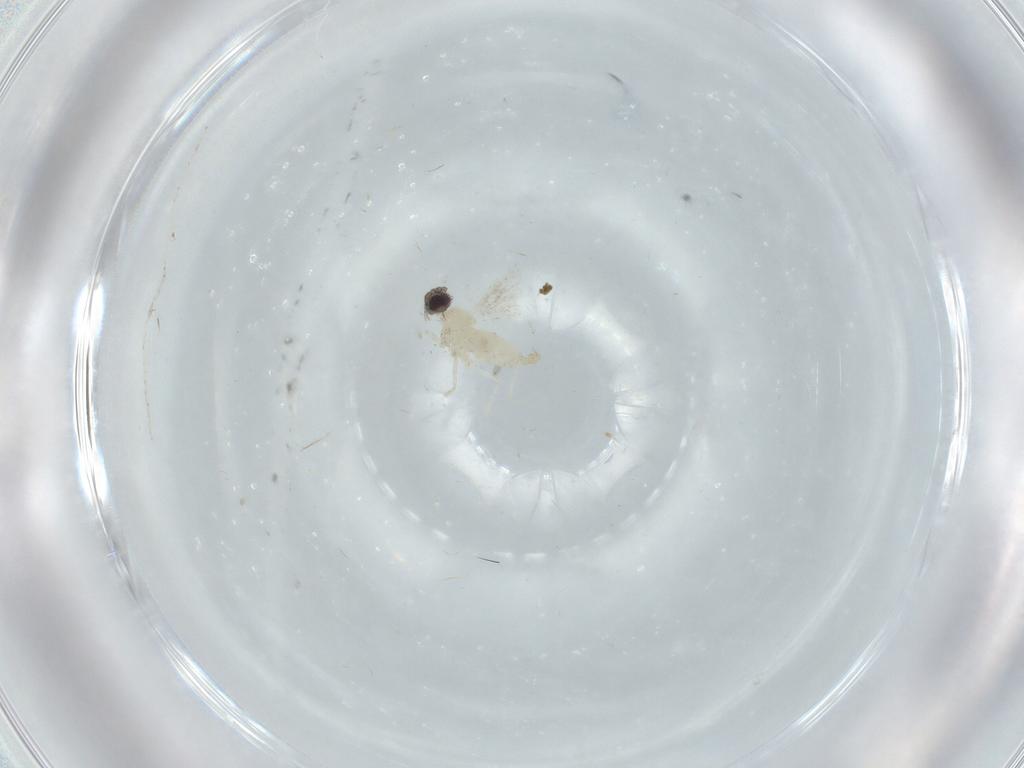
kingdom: Animalia
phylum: Arthropoda
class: Insecta
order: Diptera
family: Cecidomyiidae
